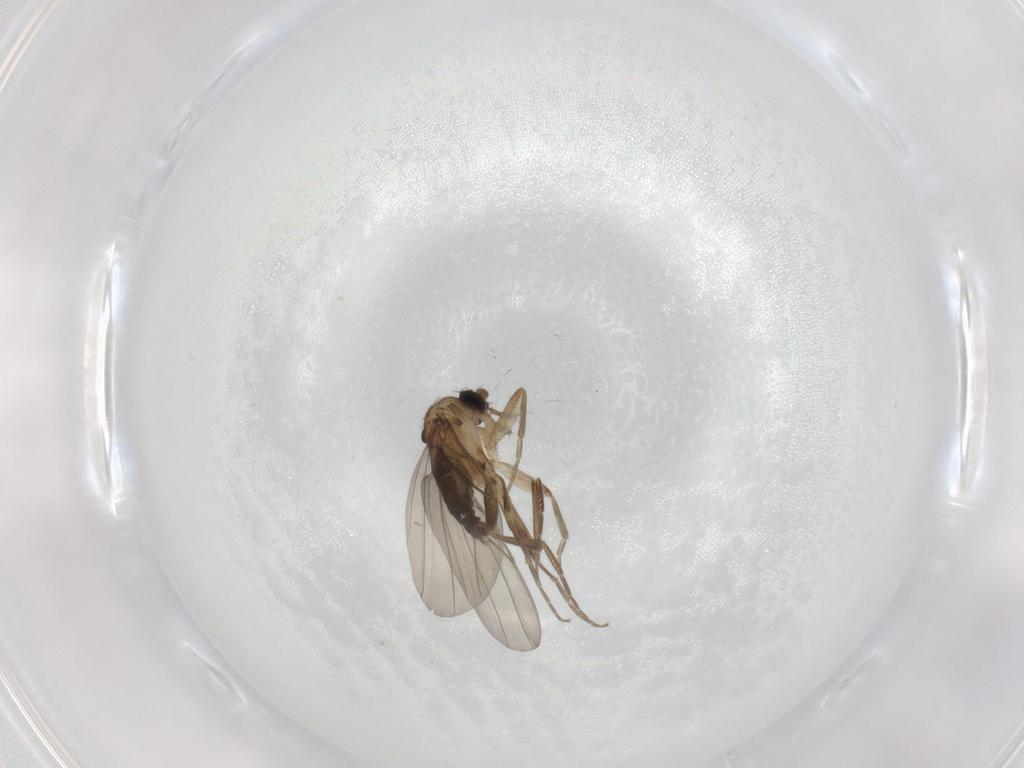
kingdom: Animalia
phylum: Arthropoda
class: Insecta
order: Diptera
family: Phoridae
